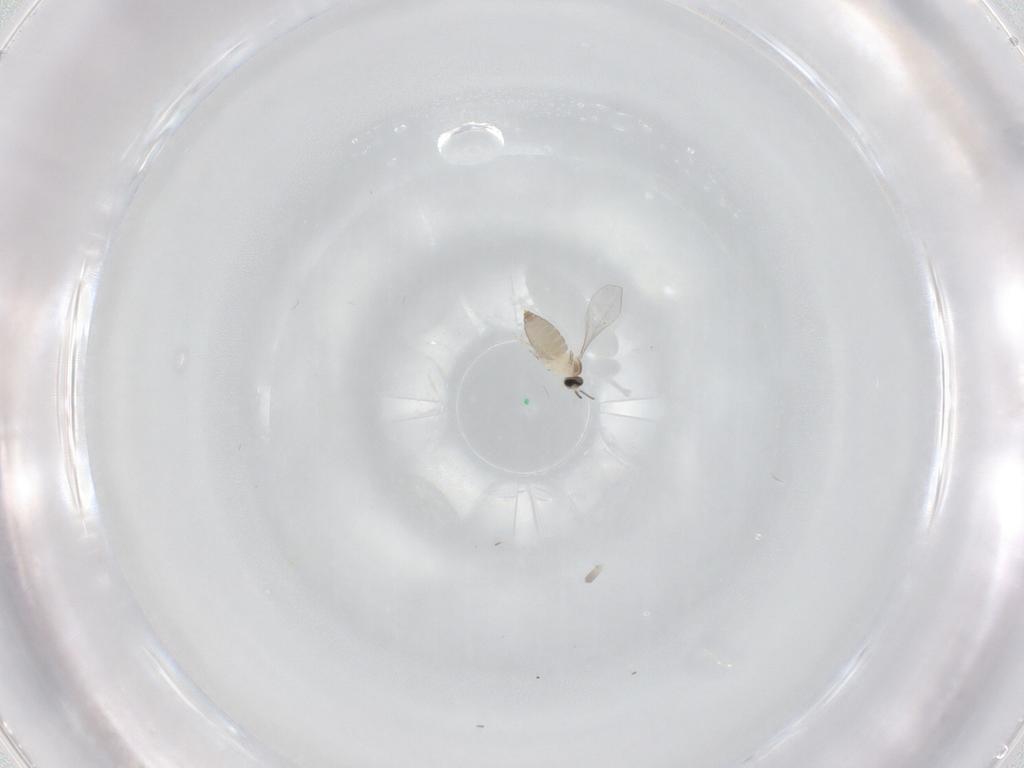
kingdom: Animalia
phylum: Arthropoda
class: Insecta
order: Diptera
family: Cecidomyiidae
